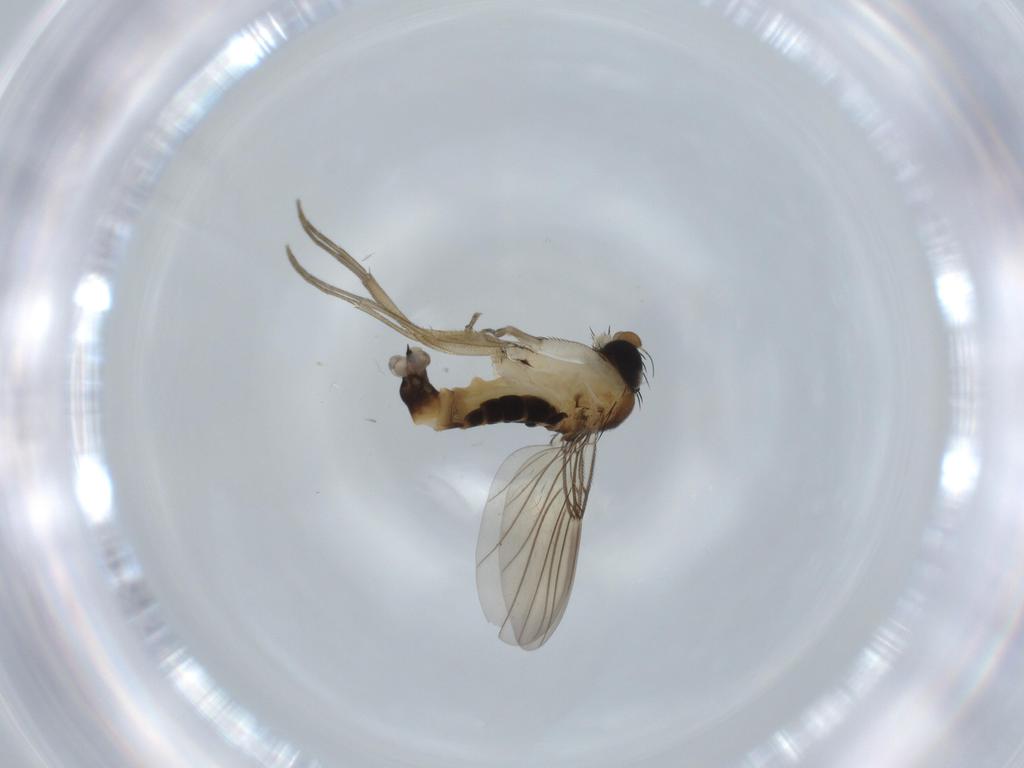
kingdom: Animalia
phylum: Arthropoda
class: Insecta
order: Diptera
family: Phoridae
